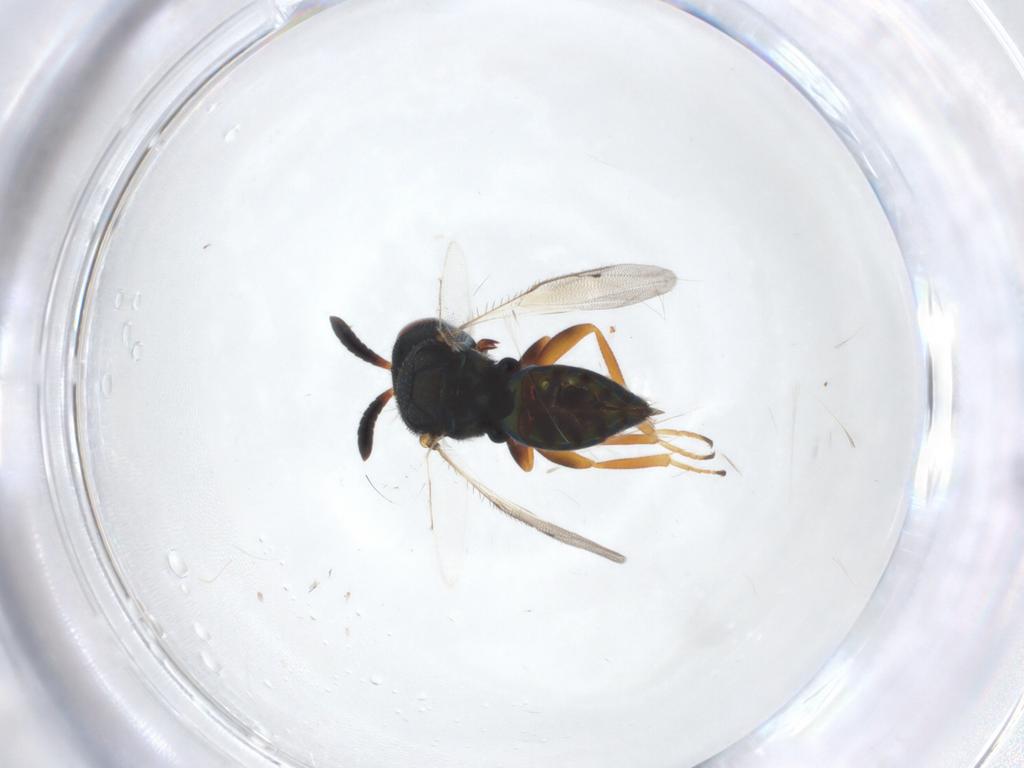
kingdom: Animalia
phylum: Arthropoda
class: Insecta
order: Hymenoptera
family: Pteromalidae
